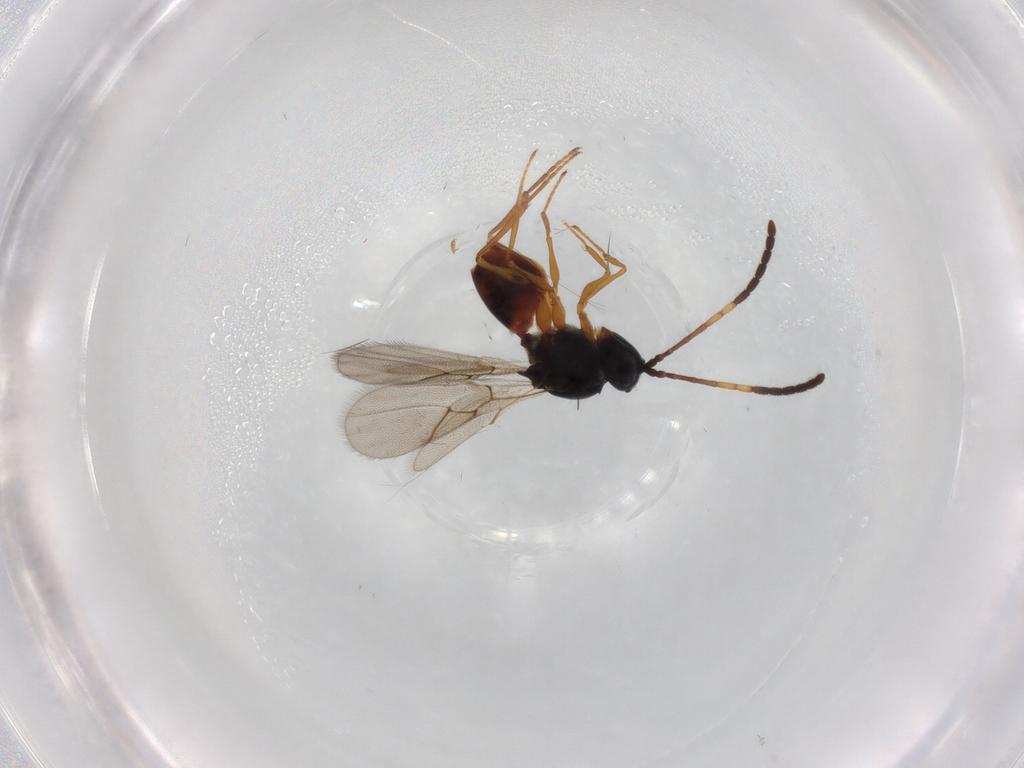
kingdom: Animalia
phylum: Arthropoda
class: Insecta
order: Hymenoptera
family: Figitidae
